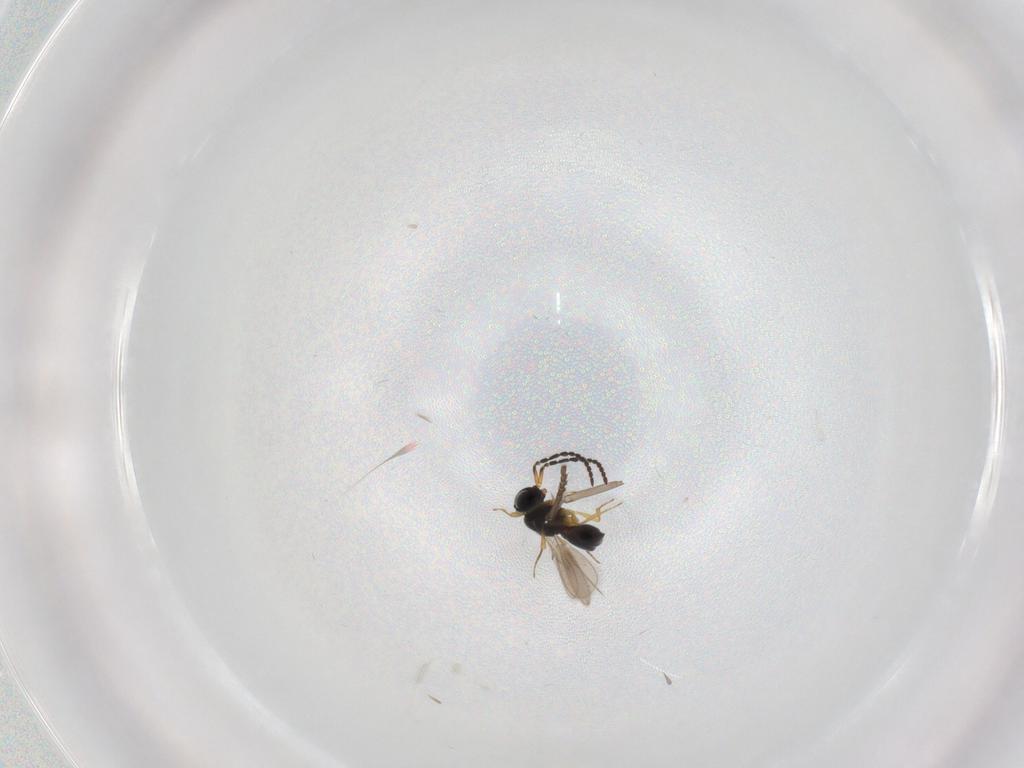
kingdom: Animalia
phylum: Arthropoda
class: Insecta
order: Hymenoptera
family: Scelionidae
